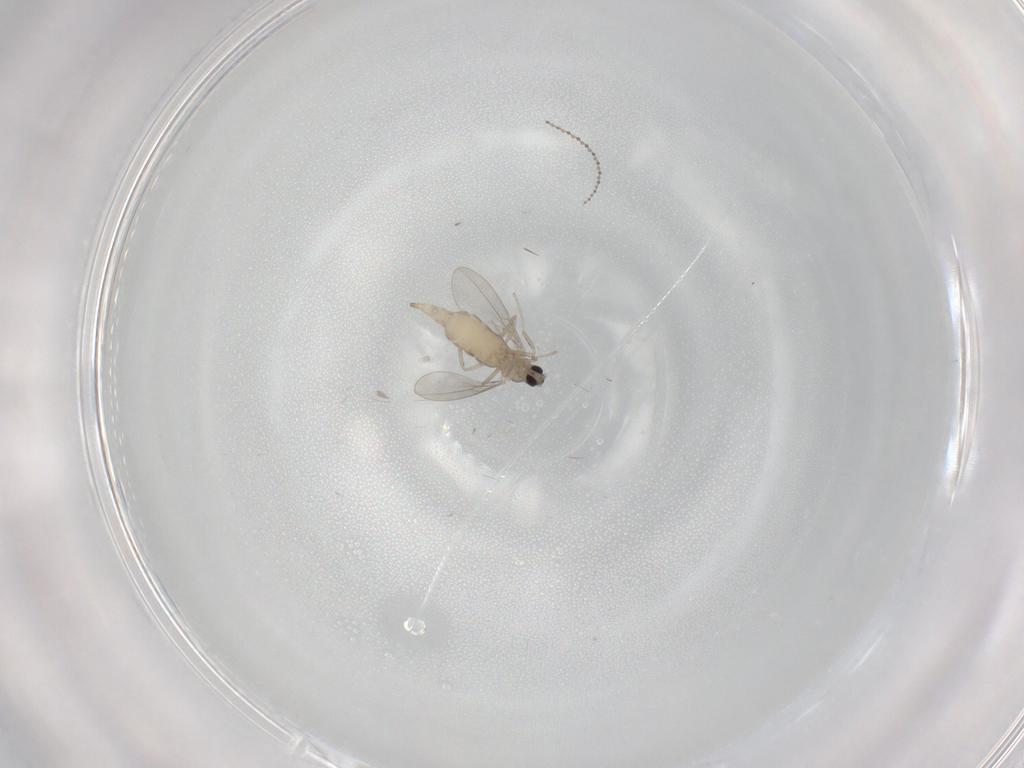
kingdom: Animalia
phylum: Arthropoda
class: Insecta
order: Diptera
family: Cecidomyiidae
